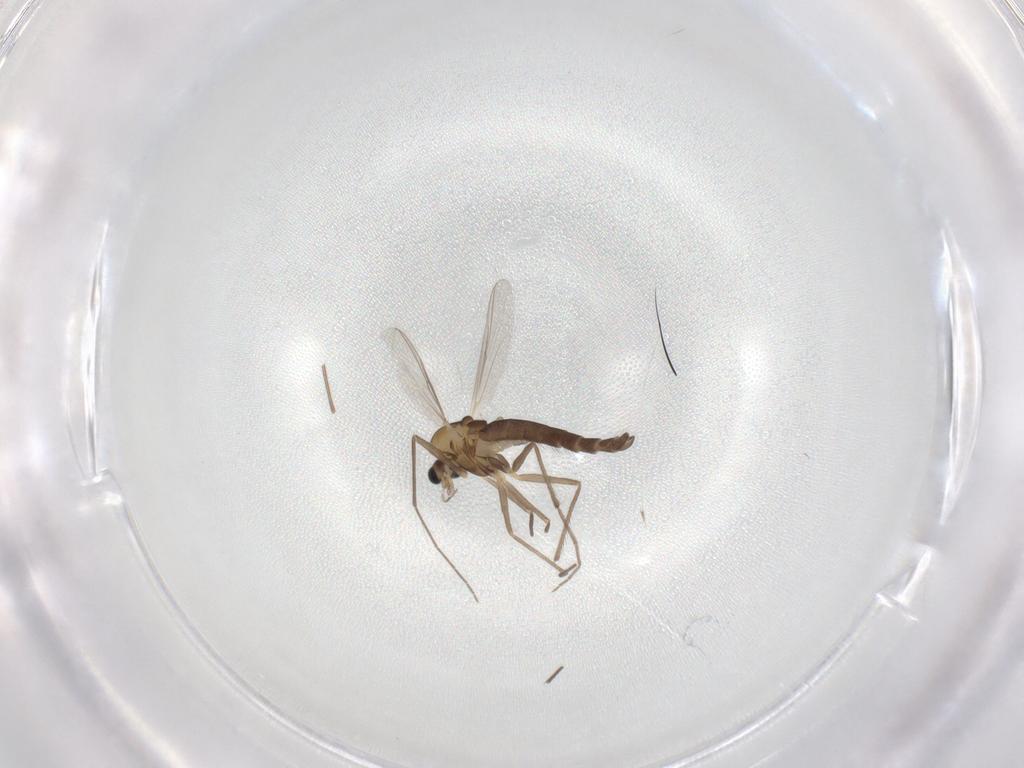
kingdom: Animalia
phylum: Arthropoda
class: Insecta
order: Diptera
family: Chironomidae
